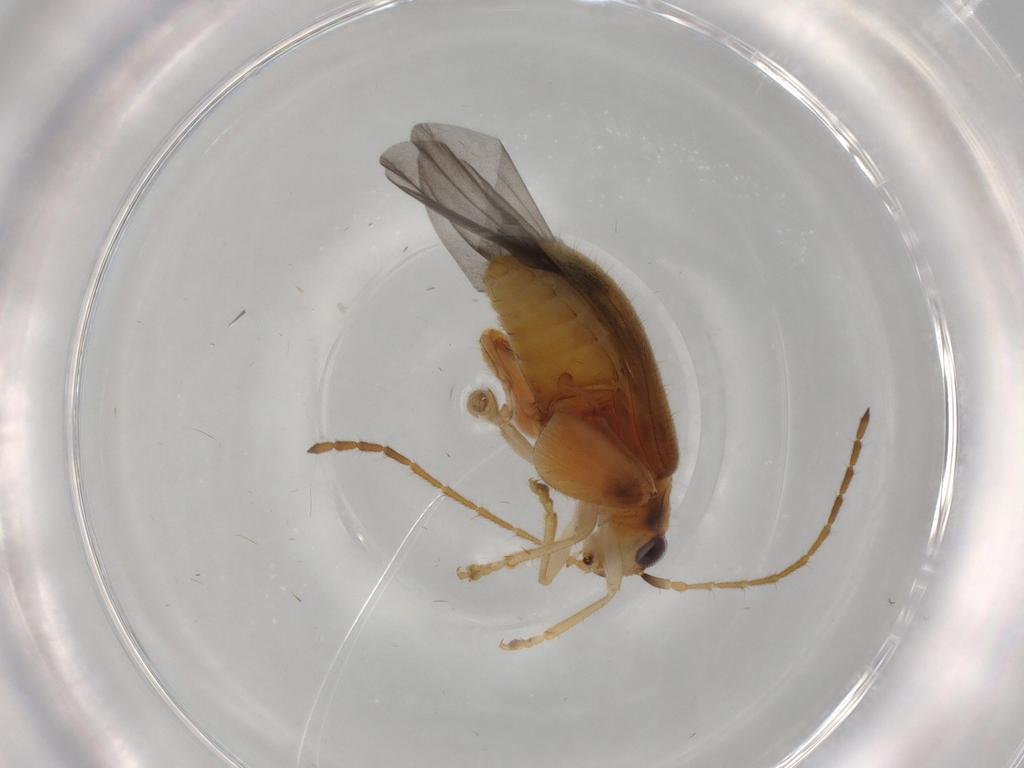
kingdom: Animalia
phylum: Arthropoda
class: Insecta
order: Coleoptera
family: Chrysomelidae
